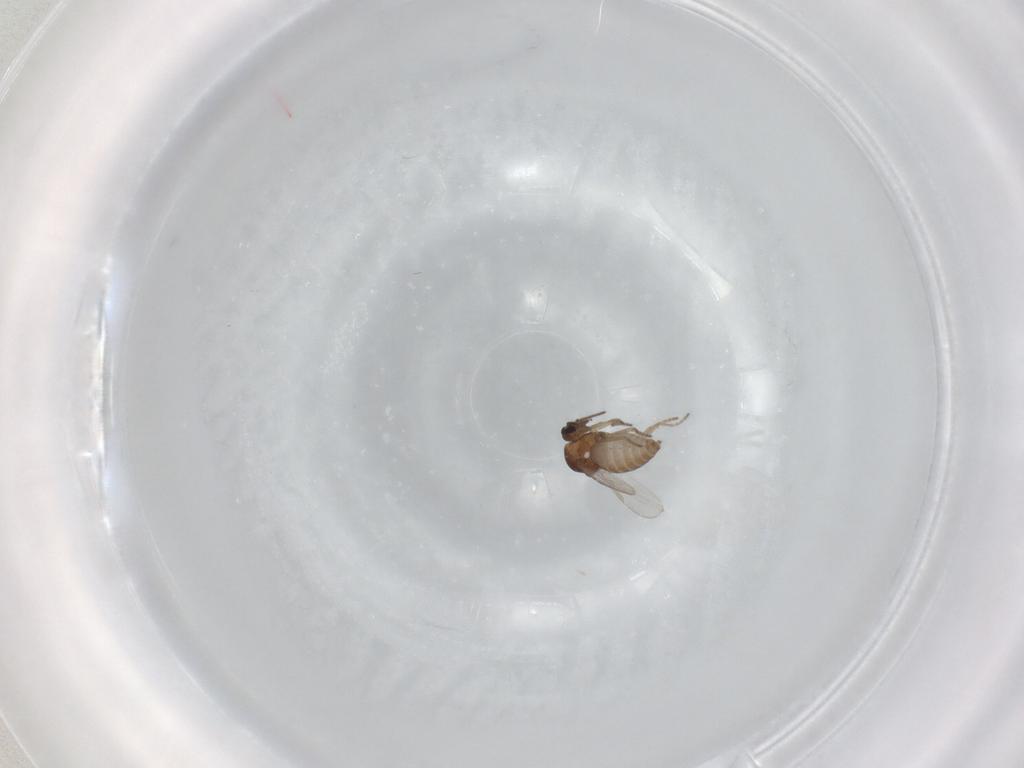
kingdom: Animalia
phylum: Arthropoda
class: Insecta
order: Diptera
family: Ceratopogonidae
